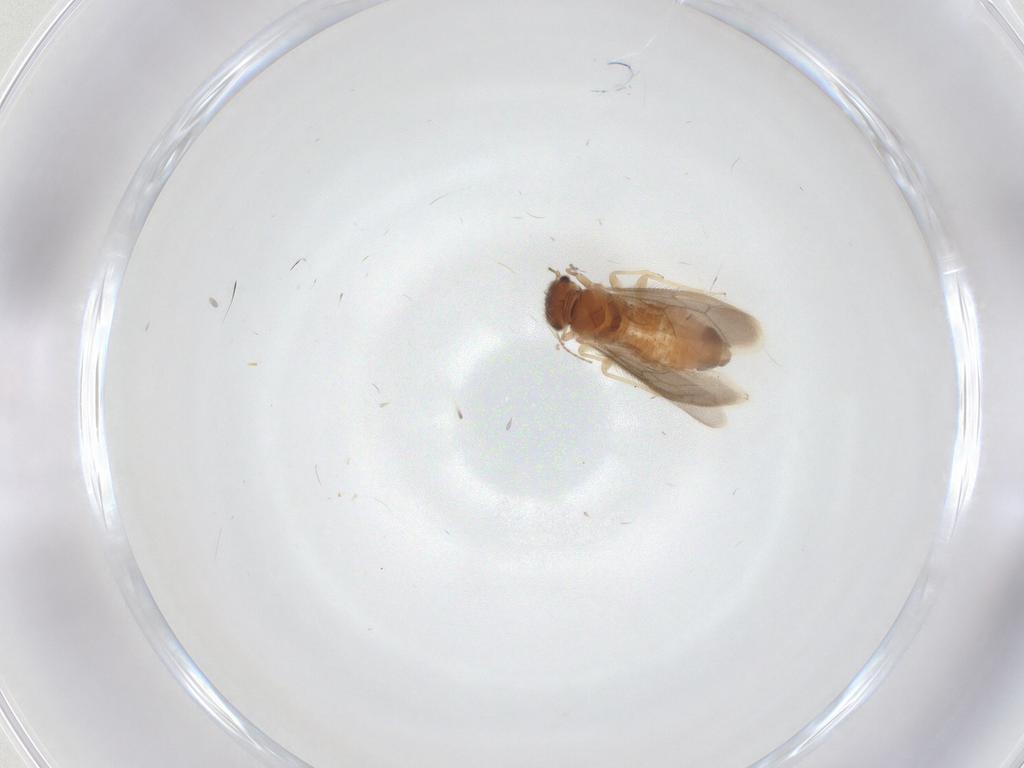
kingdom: Animalia
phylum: Arthropoda
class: Insecta
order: Psocodea
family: Archipsocidae
